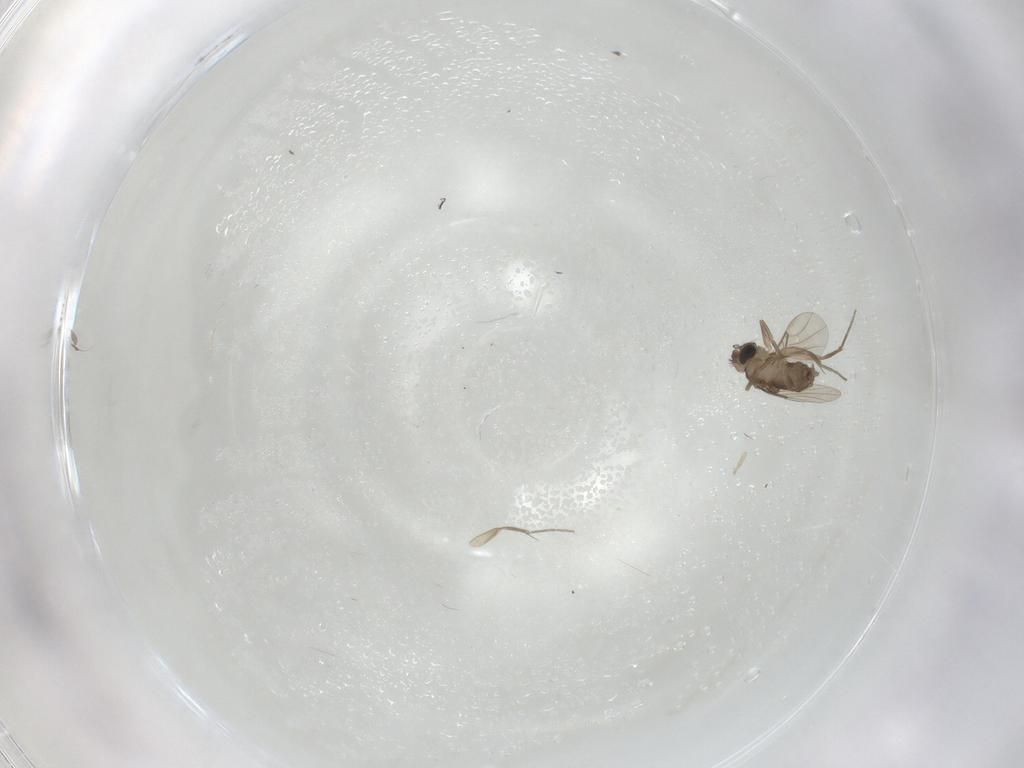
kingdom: Animalia
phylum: Arthropoda
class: Insecta
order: Diptera
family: Phoridae
